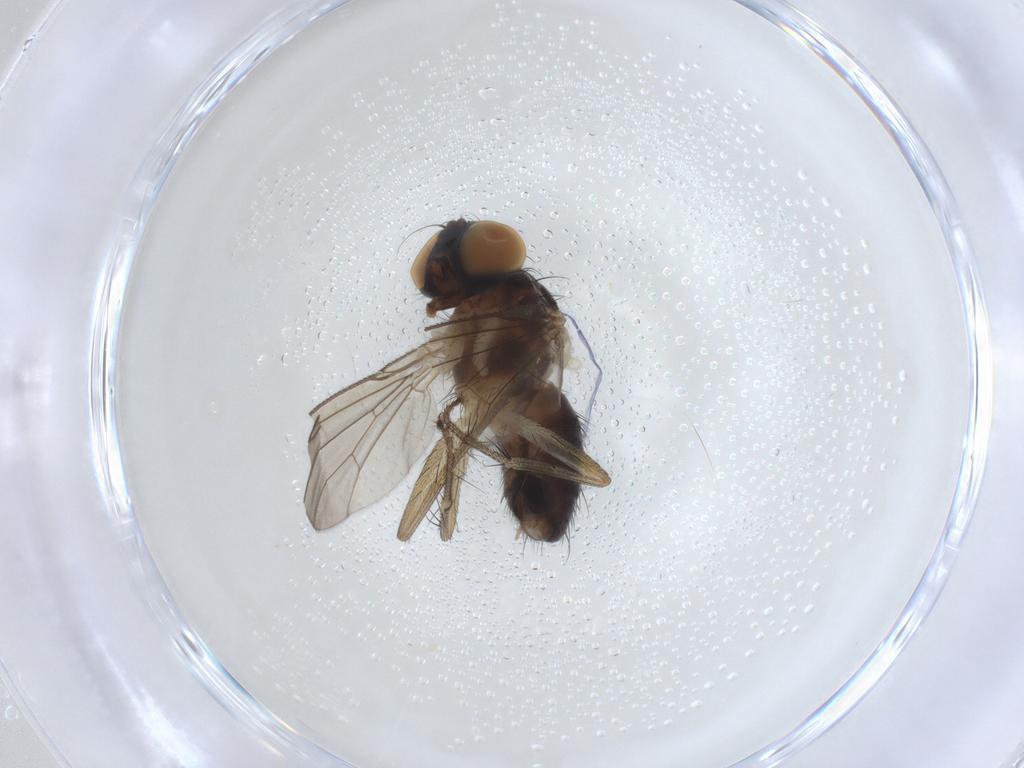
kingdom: Animalia
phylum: Arthropoda
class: Insecta
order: Diptera
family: Muscidae
